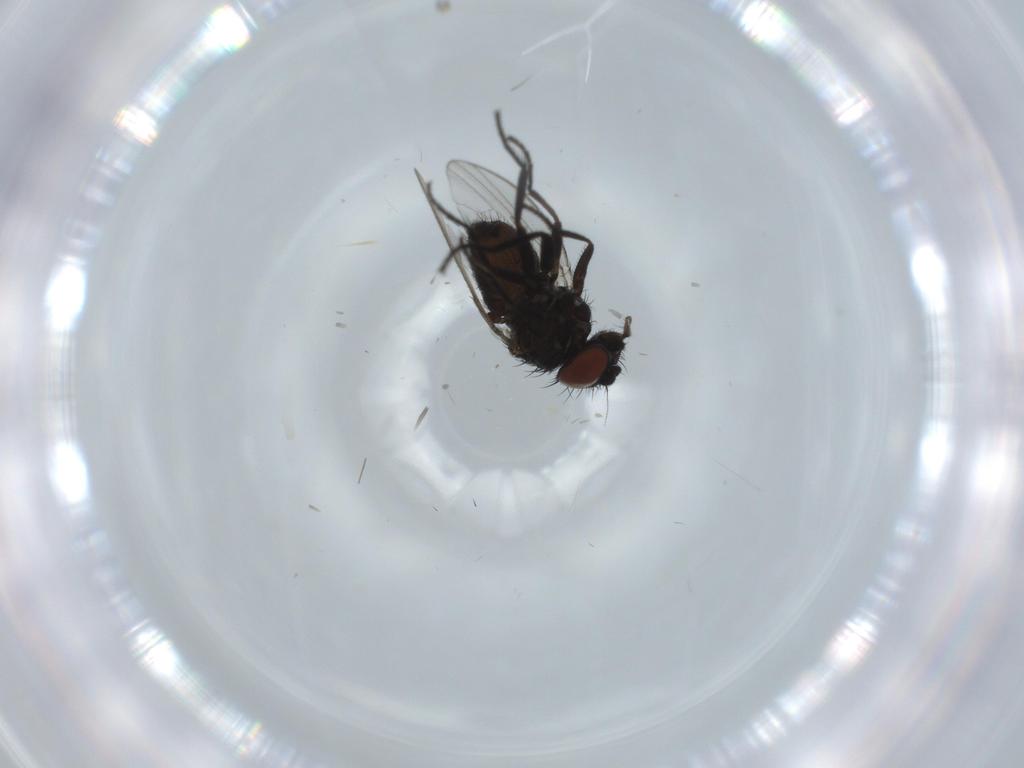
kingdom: Animalia
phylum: Arthropoda
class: Insecta
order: Diptera
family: Milichiidae
